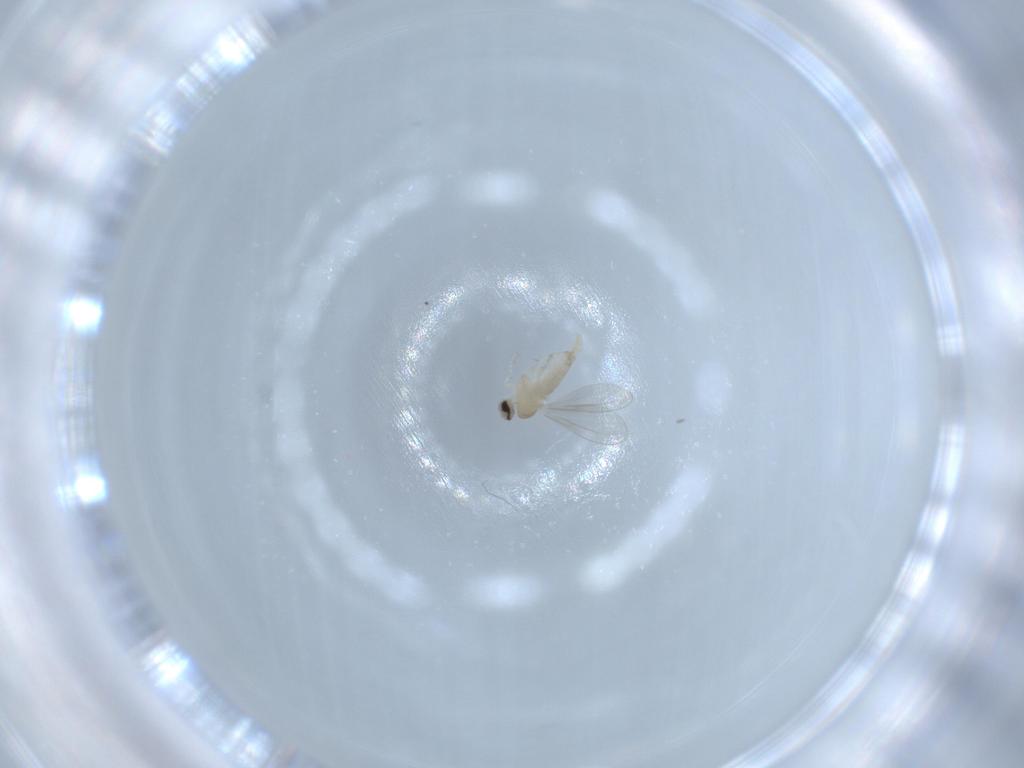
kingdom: Animalia
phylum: Arthropoda
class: Insecta
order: Diptera
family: Cecidomyiidae
